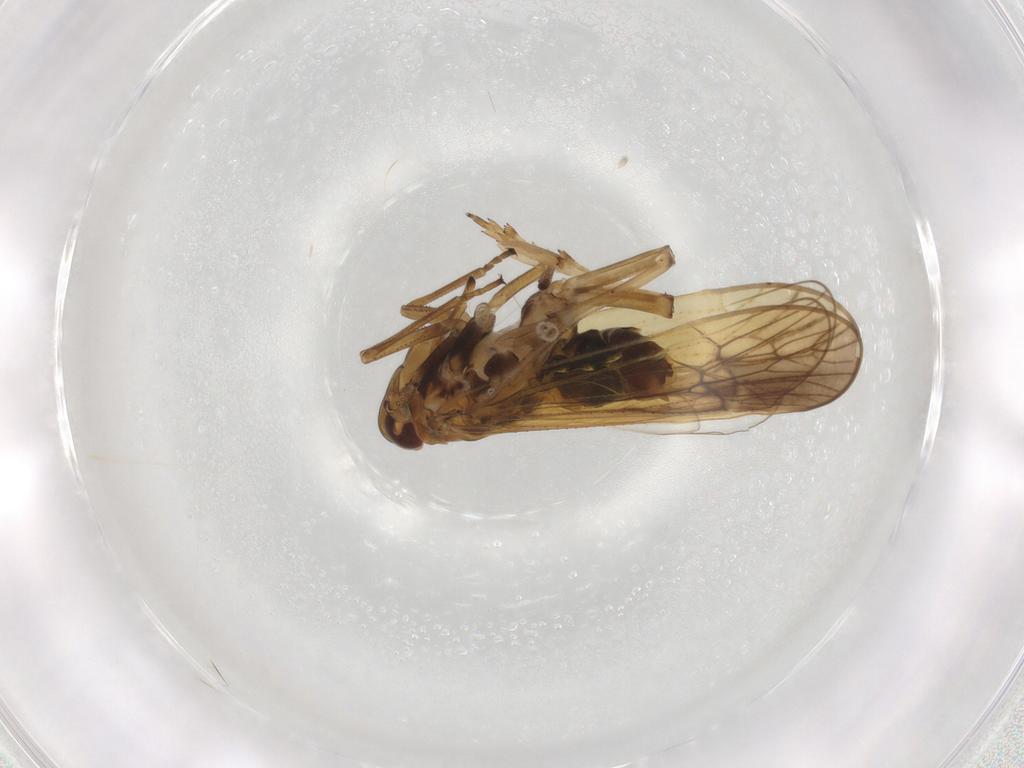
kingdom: Animalia
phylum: Arthropoda
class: Insecta
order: Hemiptera
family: Delphacidae
